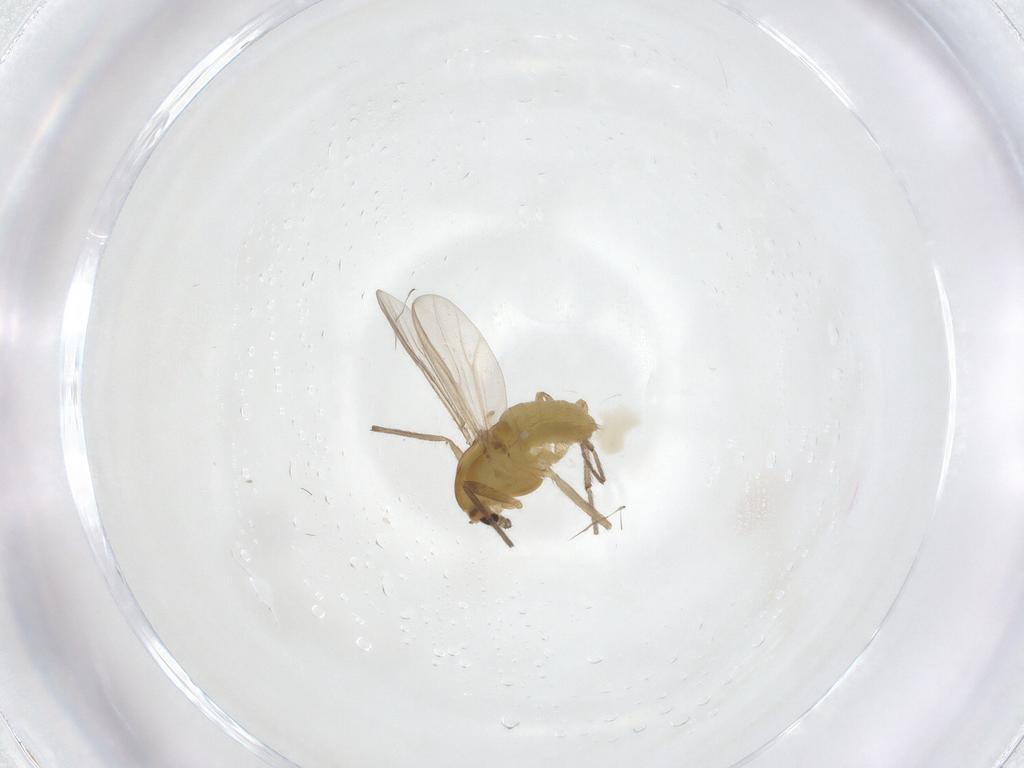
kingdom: Animalia
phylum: Arthropoda
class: Insecta
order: Diptera
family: Chironomidae
